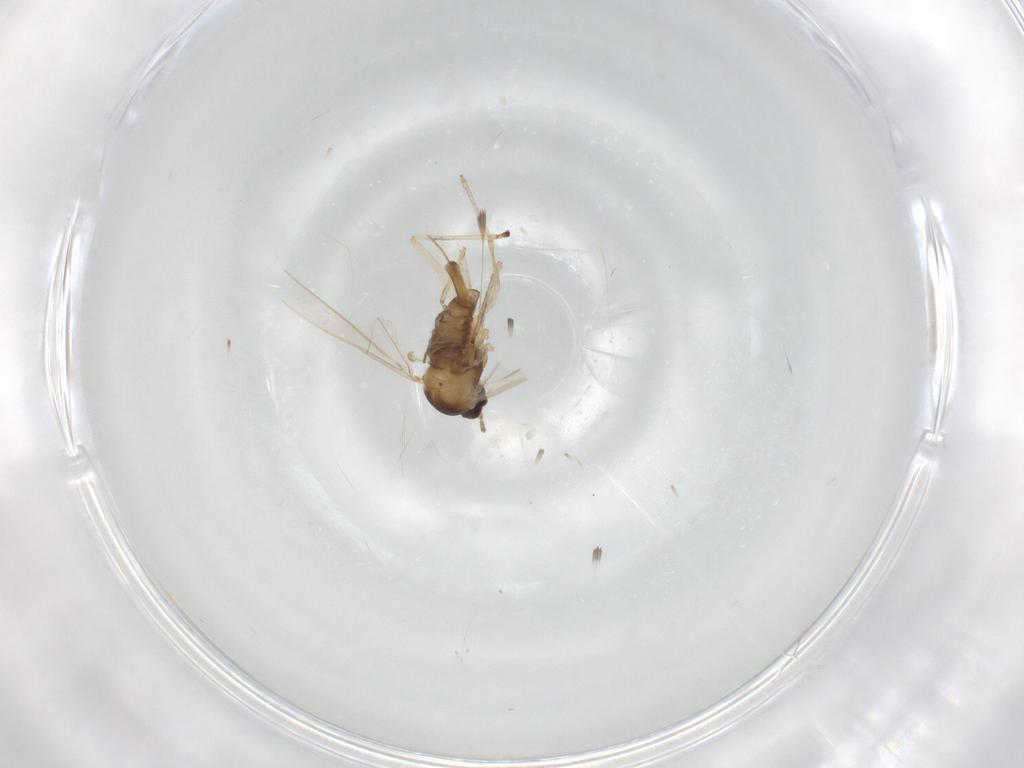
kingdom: Animalia
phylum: Arthropoda
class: Insecta
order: Diptera
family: Cecidomyiidae
